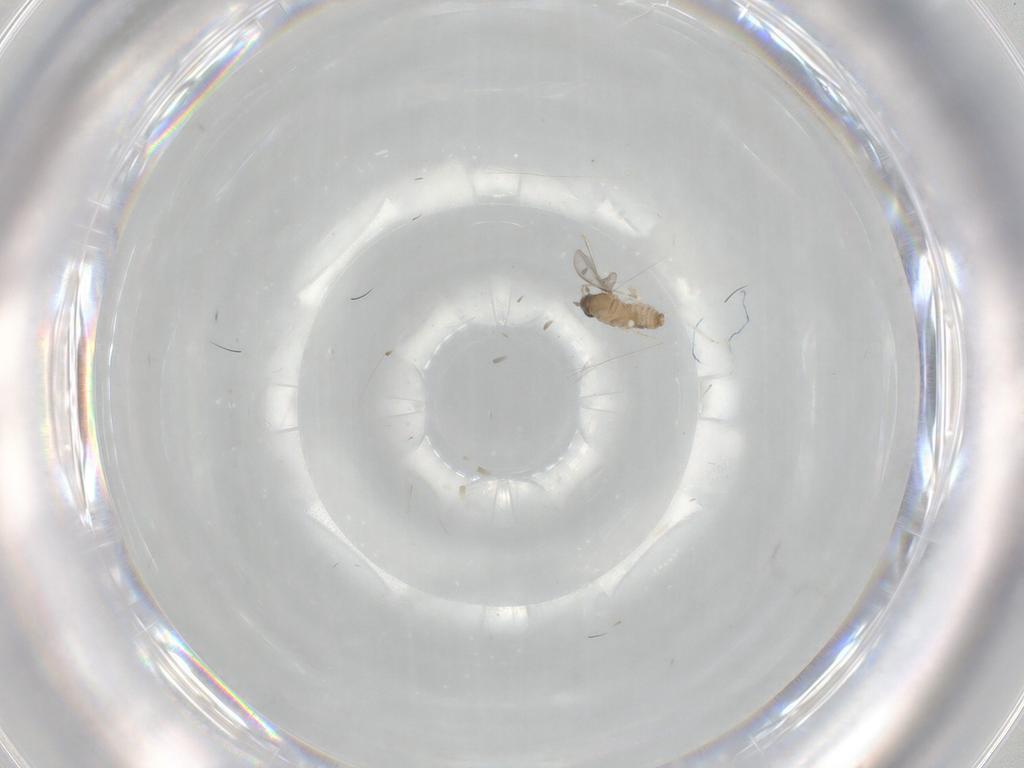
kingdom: Animalia
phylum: Arthropoda
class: Insecta
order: Diptera
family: Cecidomyiidae
